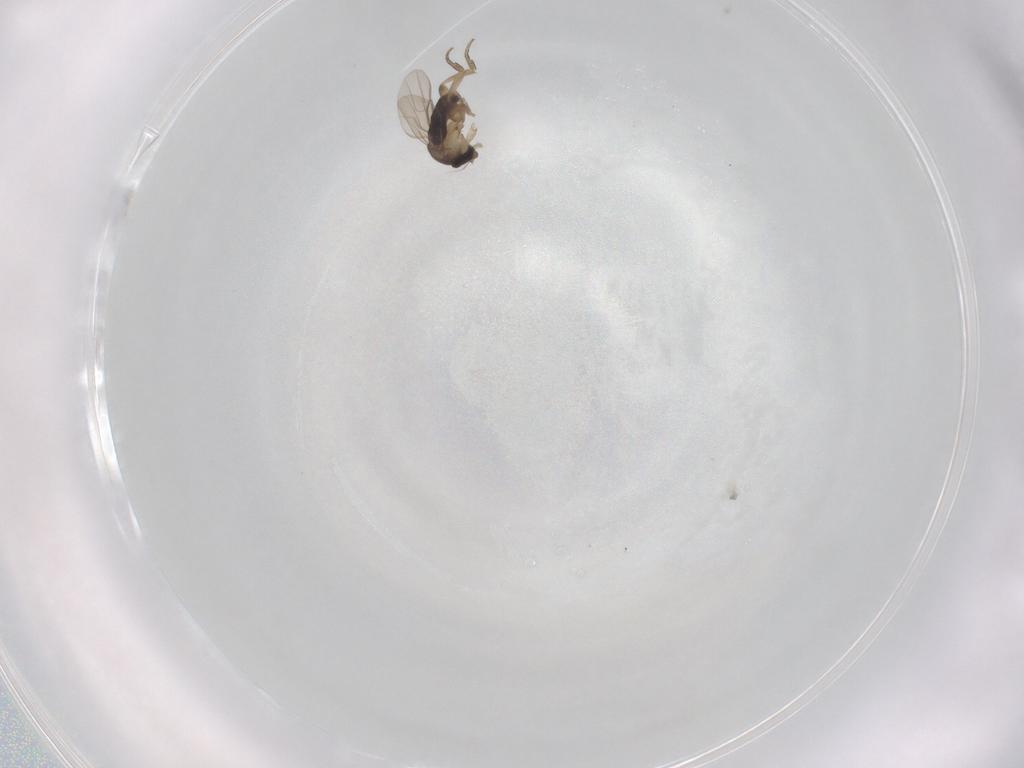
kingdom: Animalia
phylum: Arthropoda
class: Insecta
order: Diptera
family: Phoridae
